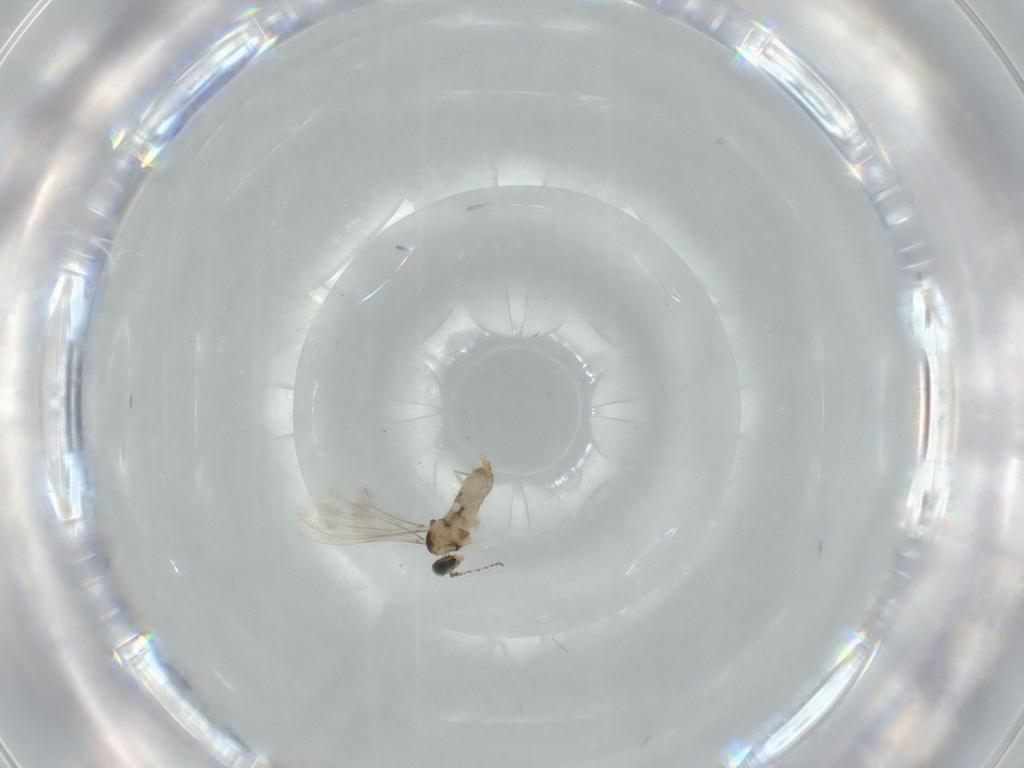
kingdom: Animalia
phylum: Arthropoda
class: Insecta
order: Diptera
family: Cecidomyiidae
